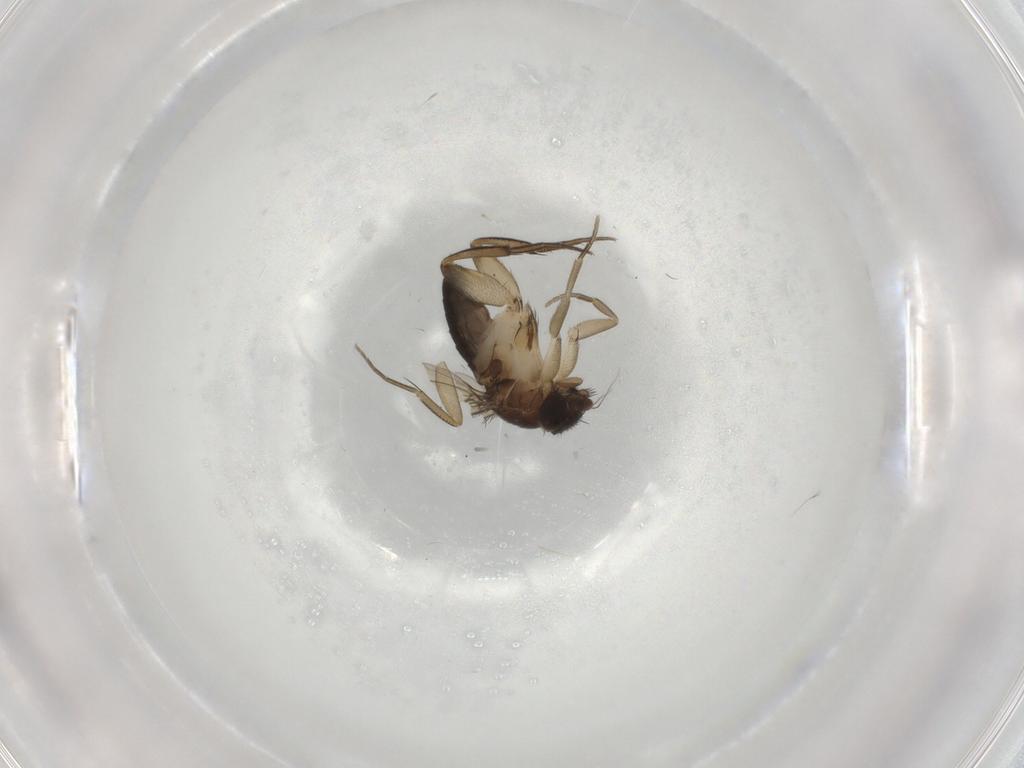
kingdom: Animalia
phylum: Arthropoda
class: Insecta
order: Diptera
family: Phoridae
